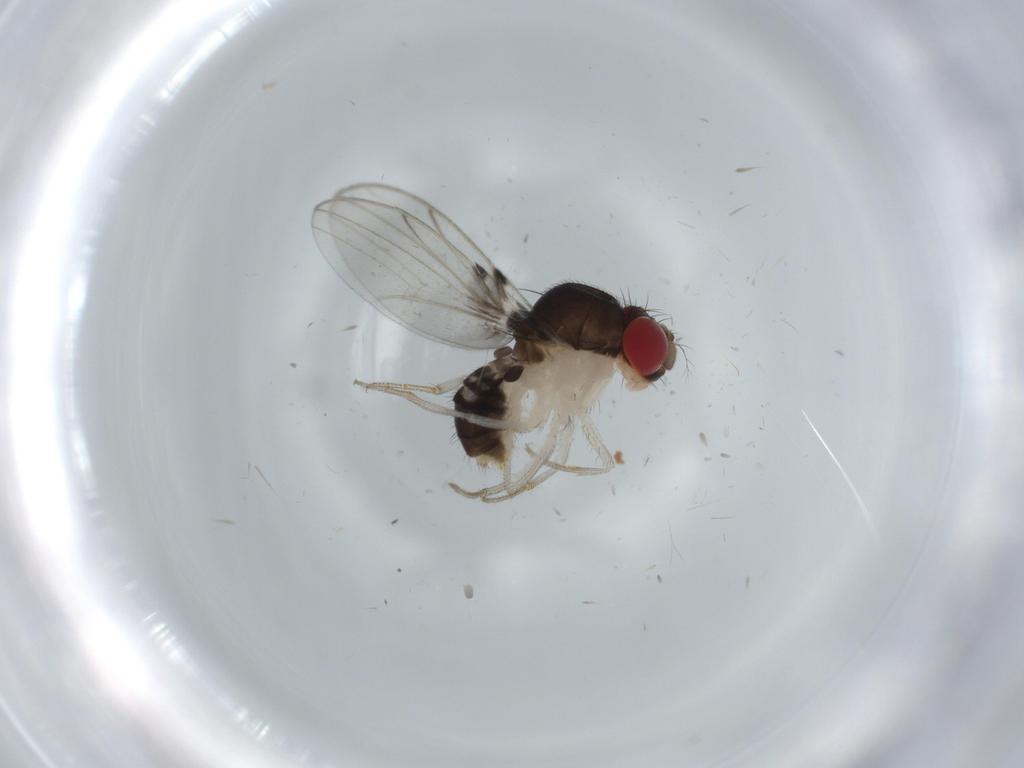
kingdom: Animalia
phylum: Arthropoda
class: Insecta
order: Diptera
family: Drosophilidae
